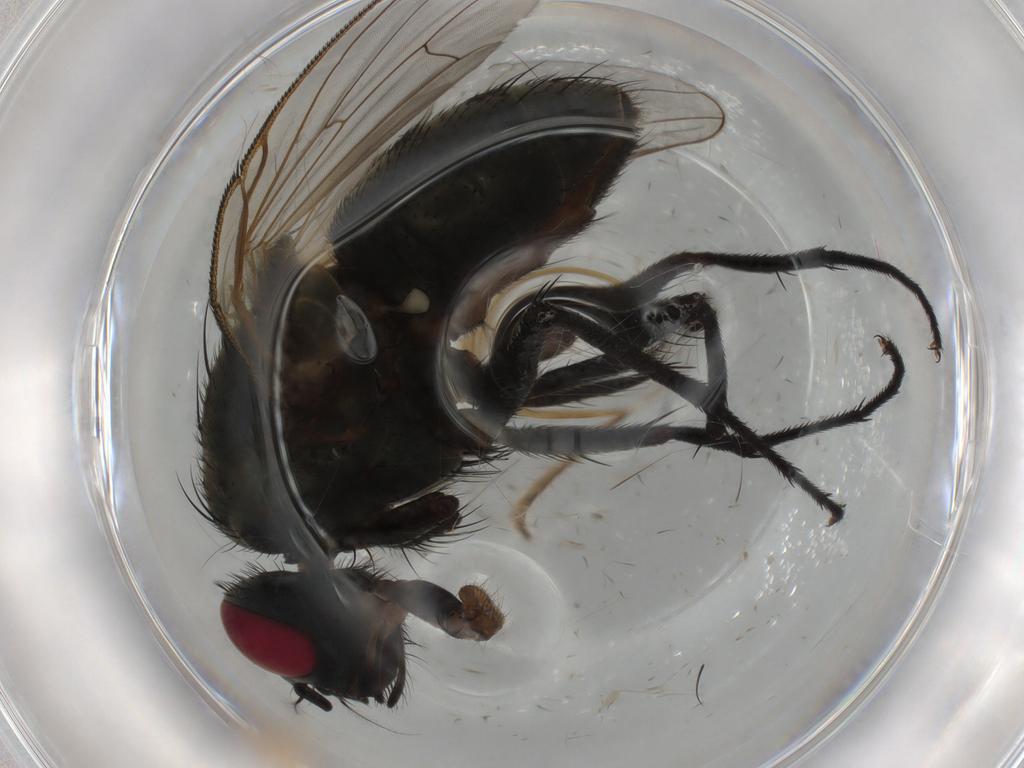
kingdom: Animalia
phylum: Arthropoda
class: Insecta
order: Diptera
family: Muscidae
